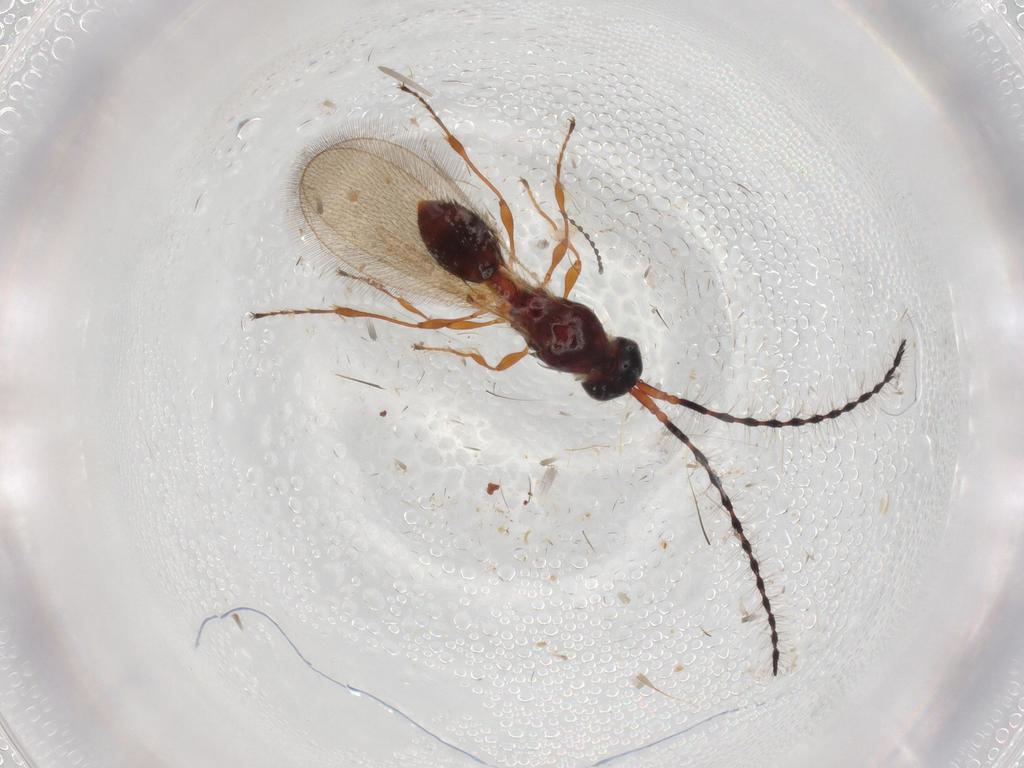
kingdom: Animalia
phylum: Arthropoda
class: Insecta
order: Hymenoptera
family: Diapriidae
